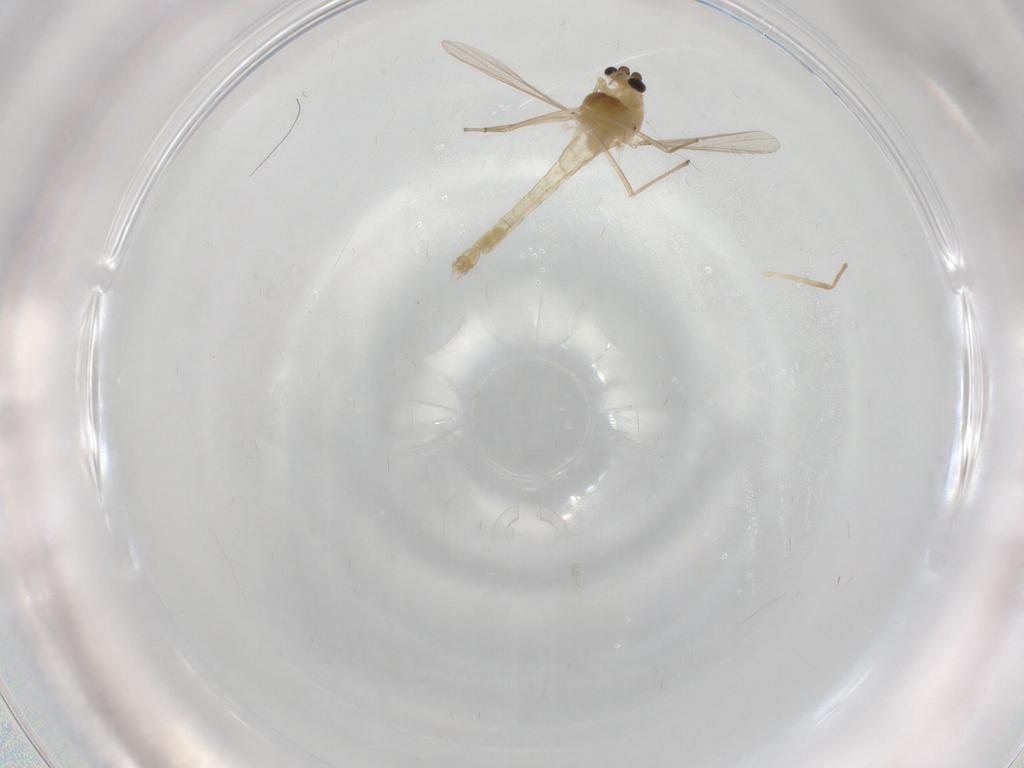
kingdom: Animalia
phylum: Arthropoda
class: Insecta
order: Diptera
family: Chironomidae
